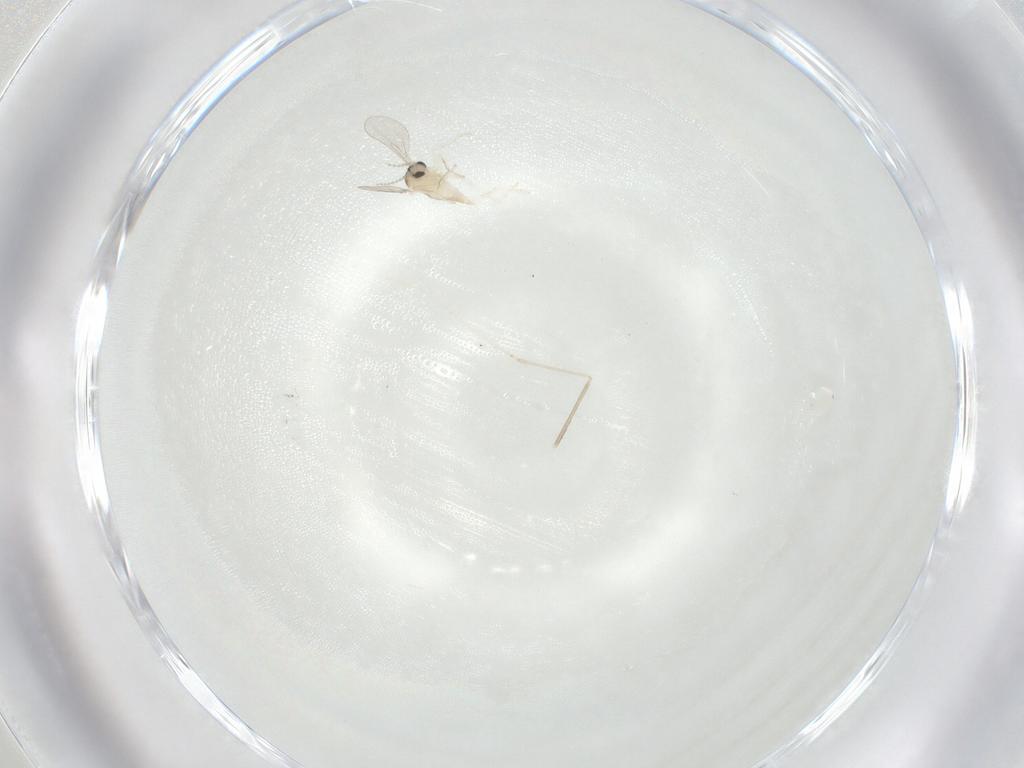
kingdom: Animalia
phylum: Arthropoda
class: Insecta
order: Diptera
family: Cecidomyiidae
